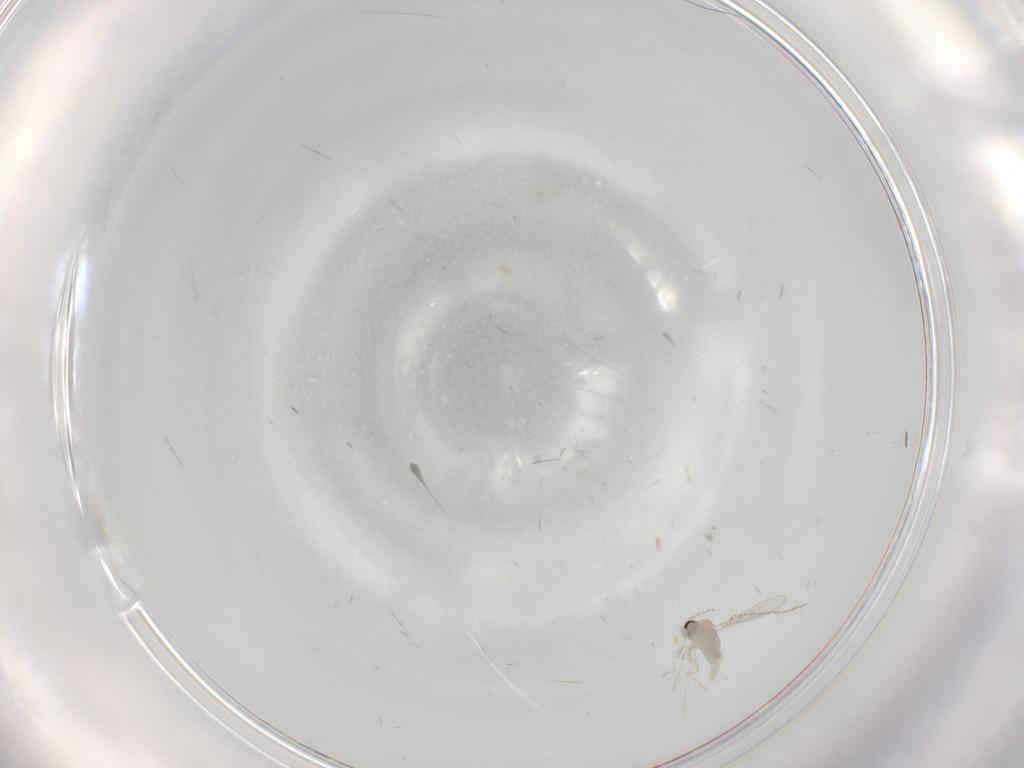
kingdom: Animalia
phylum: Arthropoda
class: Insecta
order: Diptera
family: Cecidomyiidae
